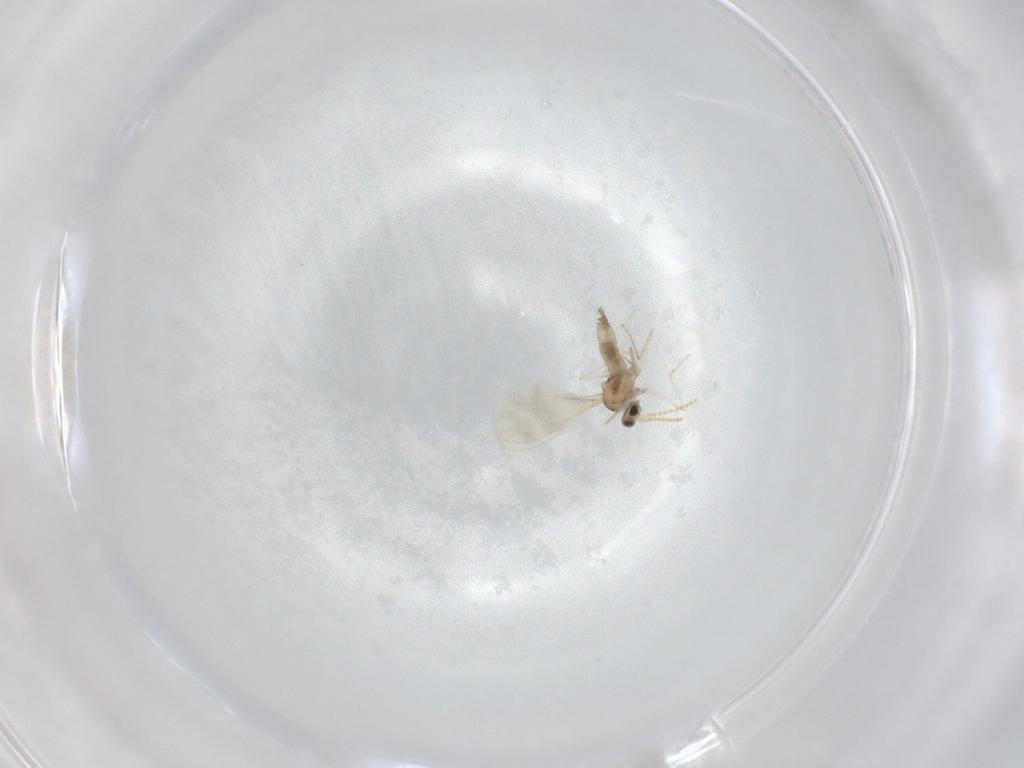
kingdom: Animalia
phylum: Arthropoda
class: Insecta
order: Diptera
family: Cecidomyiidae
